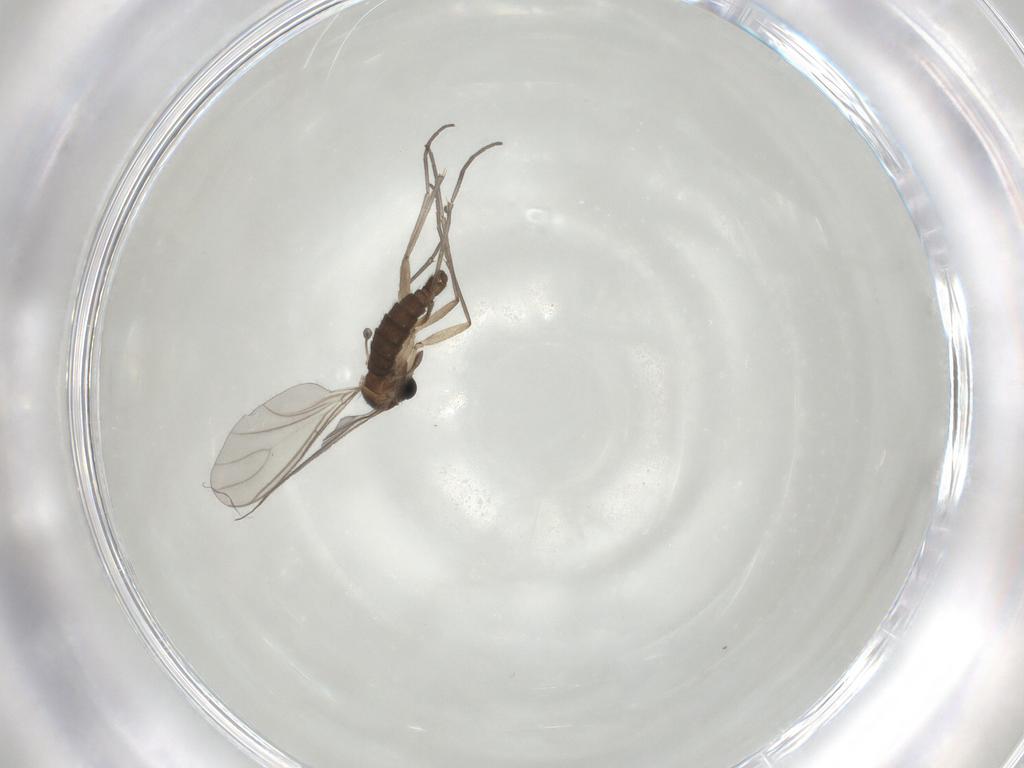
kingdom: Animalia
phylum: Arthropoda
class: Insecta
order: Diptera
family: Sciaridae
